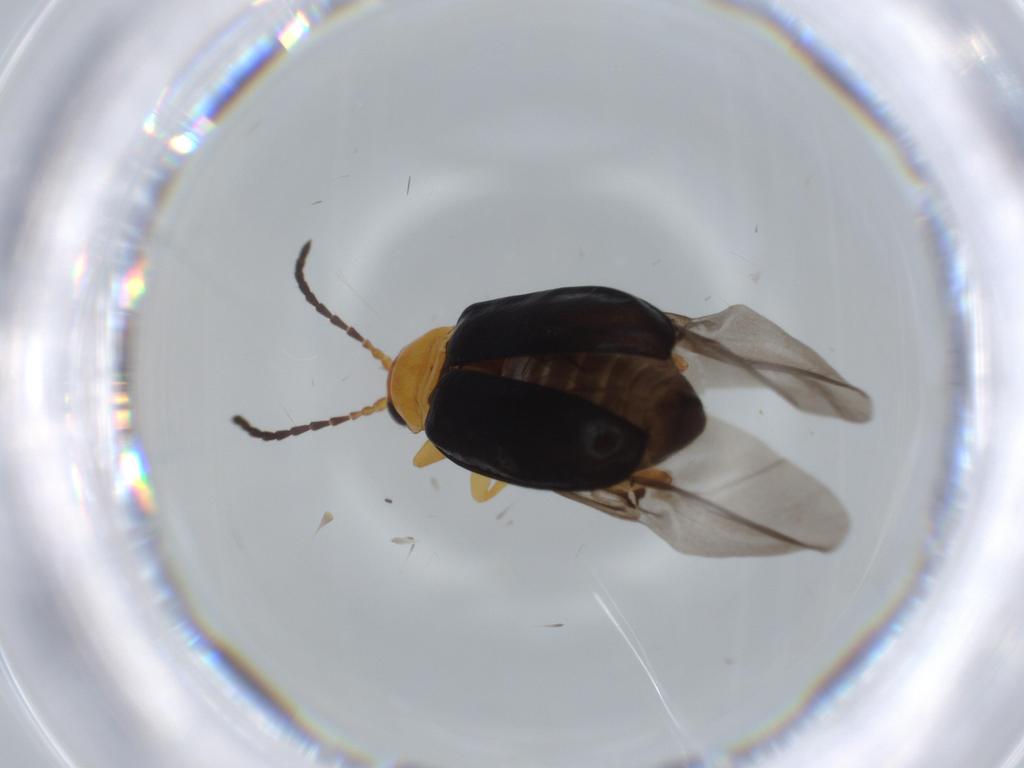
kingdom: Animalia
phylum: Arthropoda
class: Insecta
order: Coleoptera
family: Chrysomelidae
